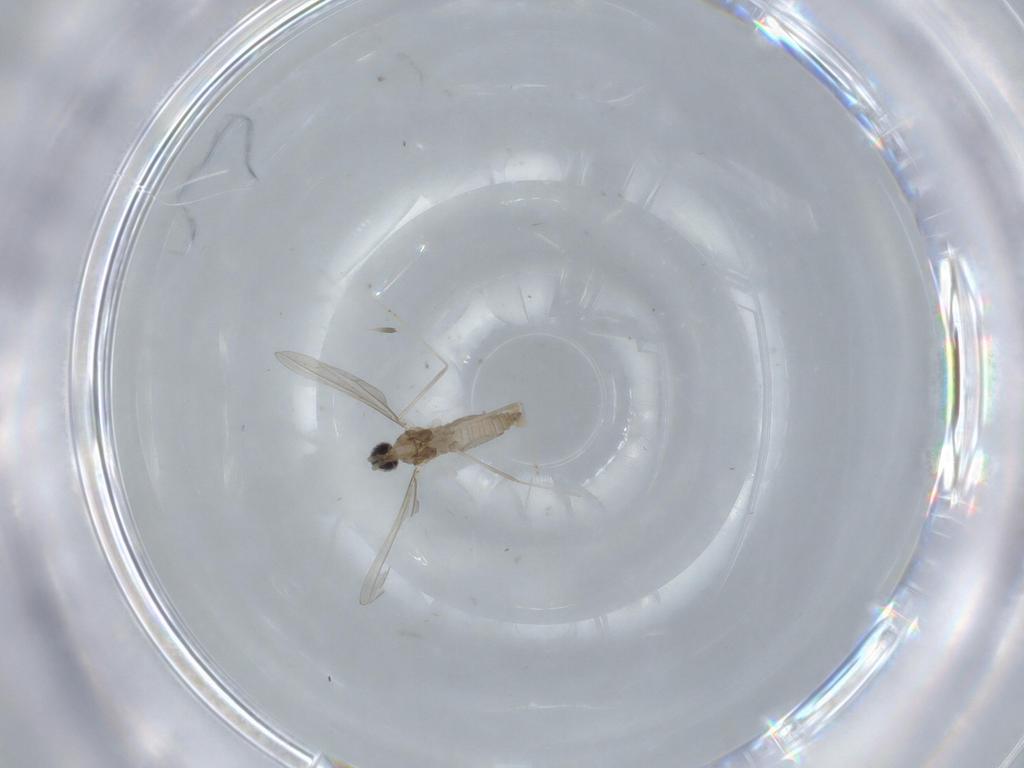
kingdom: Animalia
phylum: Arthropoda
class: Insecta
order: Diptera
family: Cecidomyiidae
